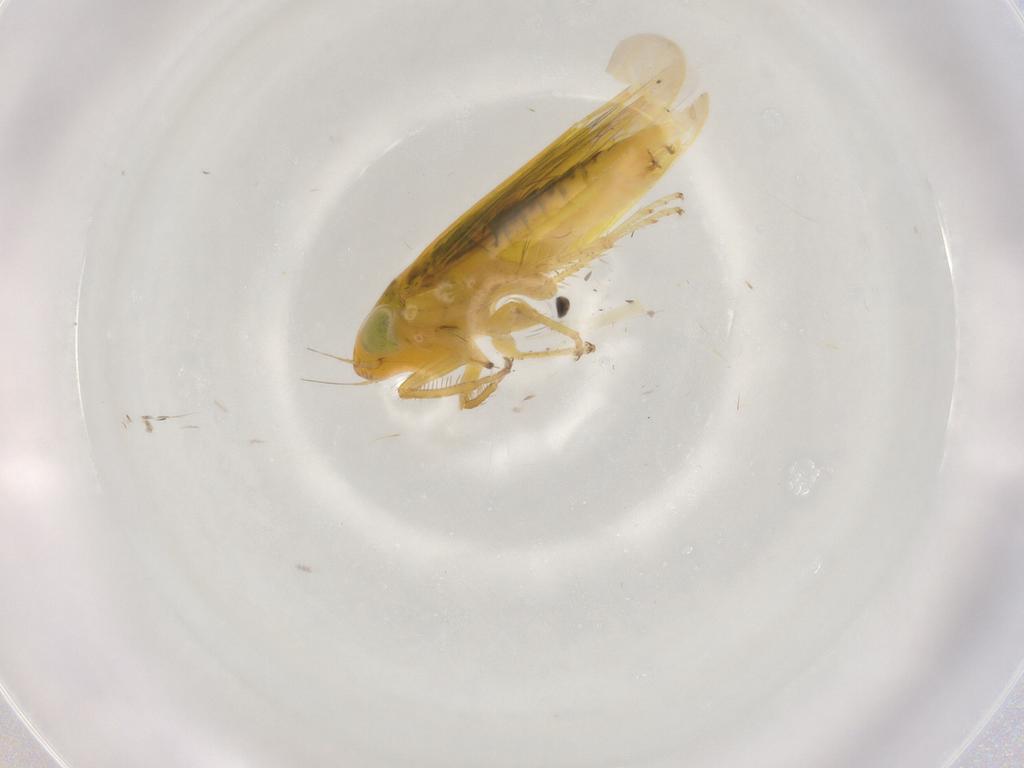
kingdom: Animalia
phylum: Arthropoda
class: Insecta
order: Hemiptera
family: Cicadellidae
